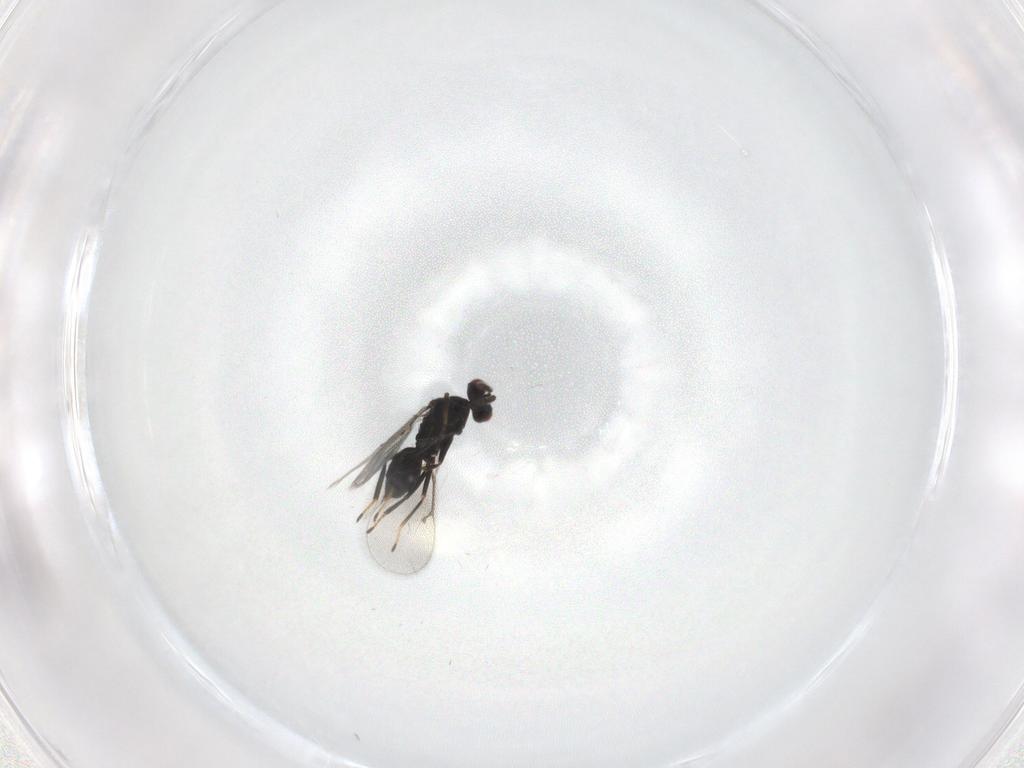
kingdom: Animalia
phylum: Arthropoda
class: Insecta
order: Hymenoptera
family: Eulophidae
